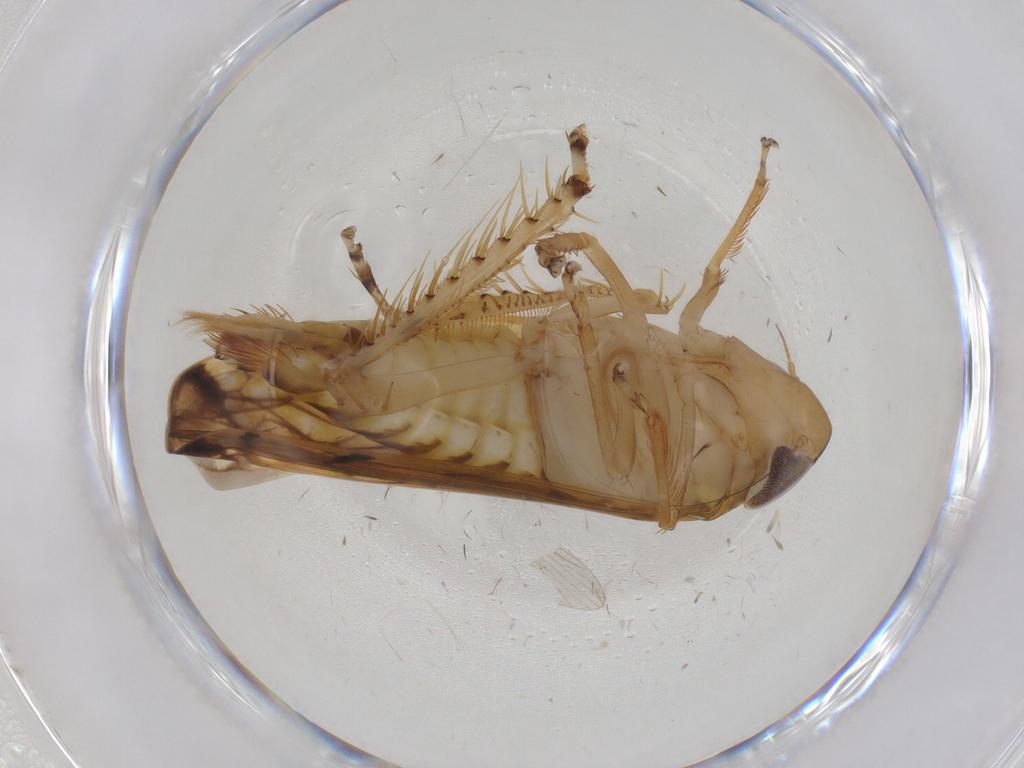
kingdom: Animalia
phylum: Arthropoda
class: Insecta
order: Hemiptera
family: Tropiduchidae
